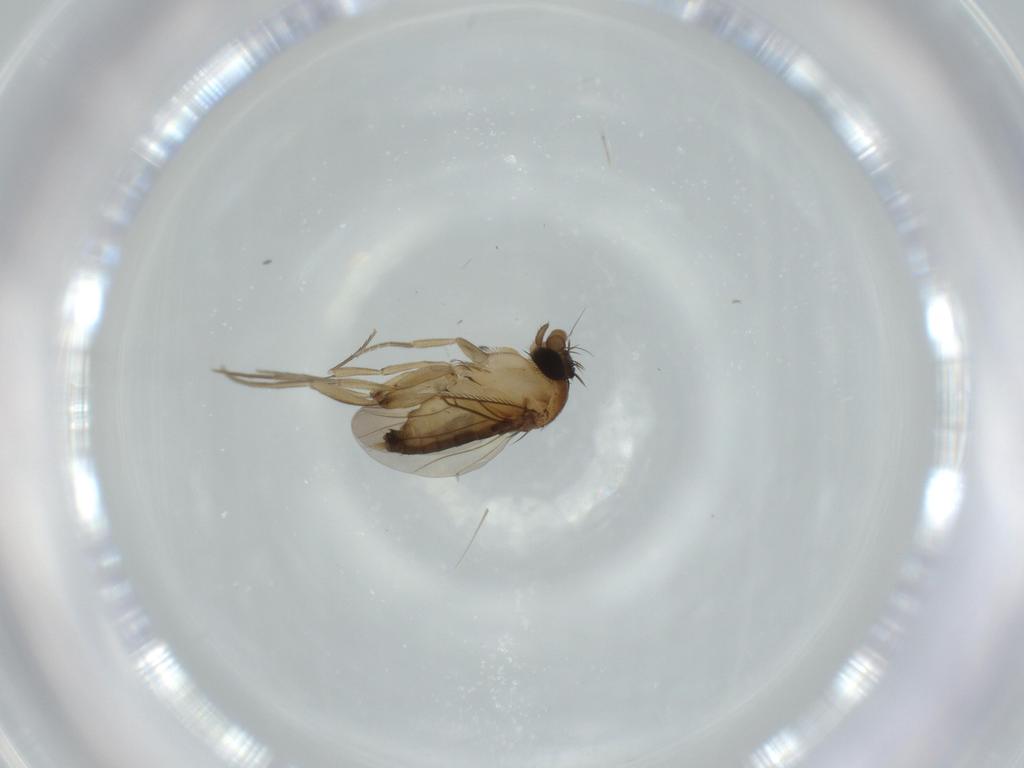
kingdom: Animalia
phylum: Arthropoda
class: Insecta
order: Diptera
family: Phoridae
